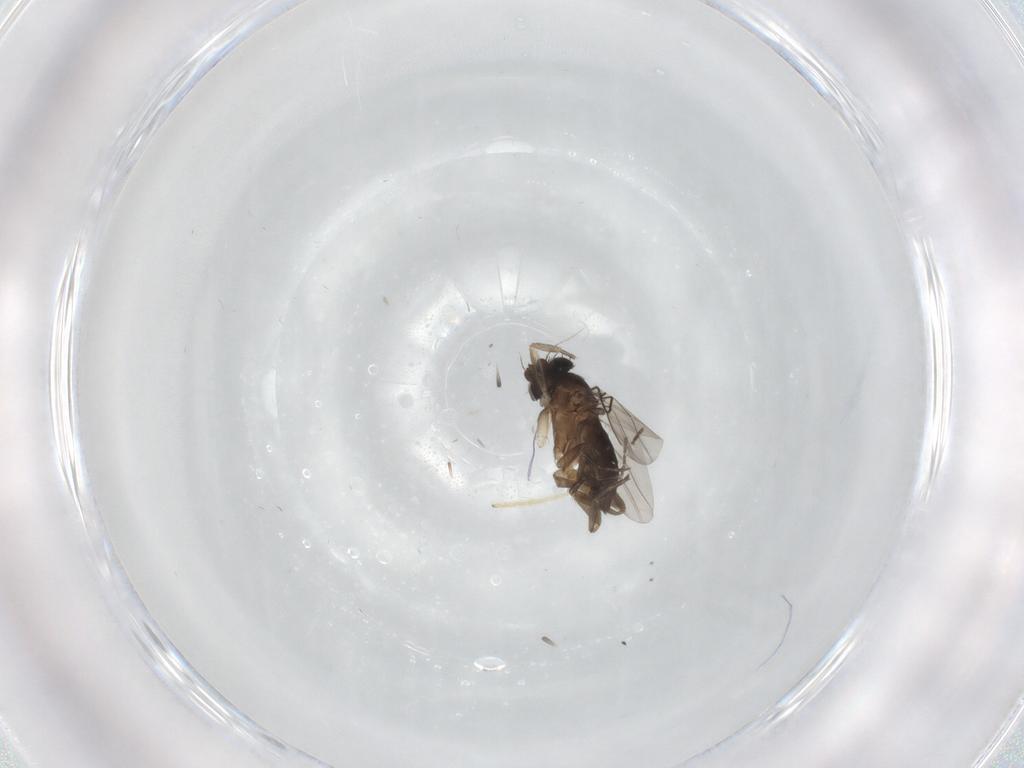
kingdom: Animalia
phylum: Arthropoda
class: Insecta
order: Diptera
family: Phoridae
